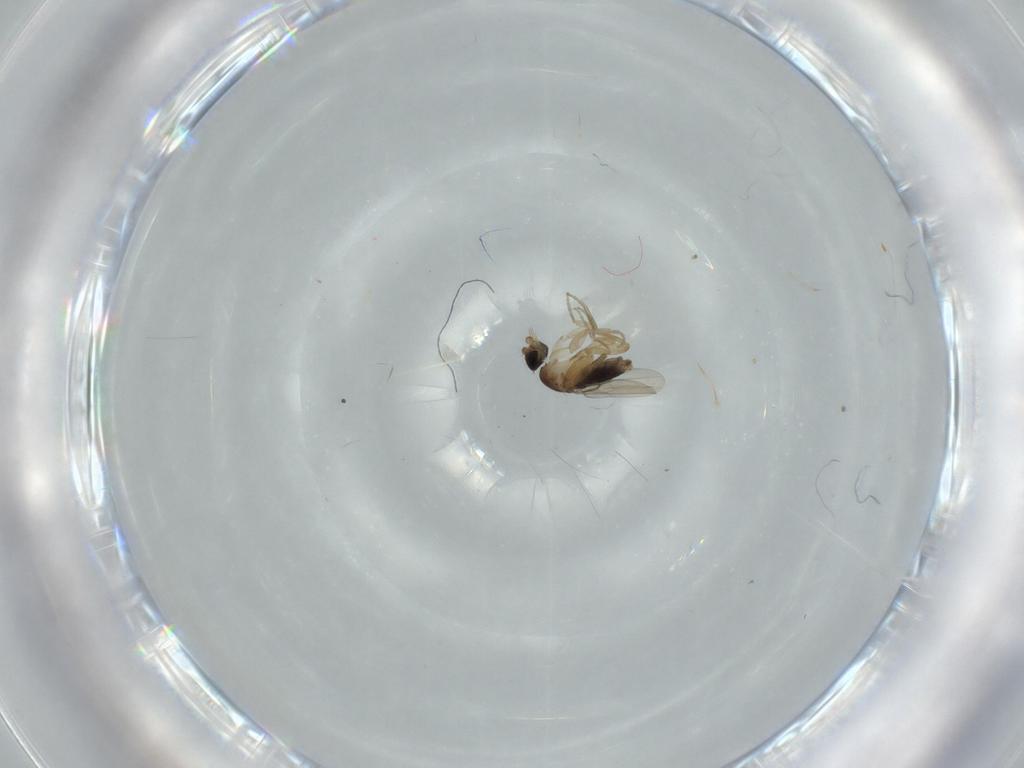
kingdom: Animalia
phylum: Arthropoda
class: Insecta
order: Diptera
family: Phoridae
